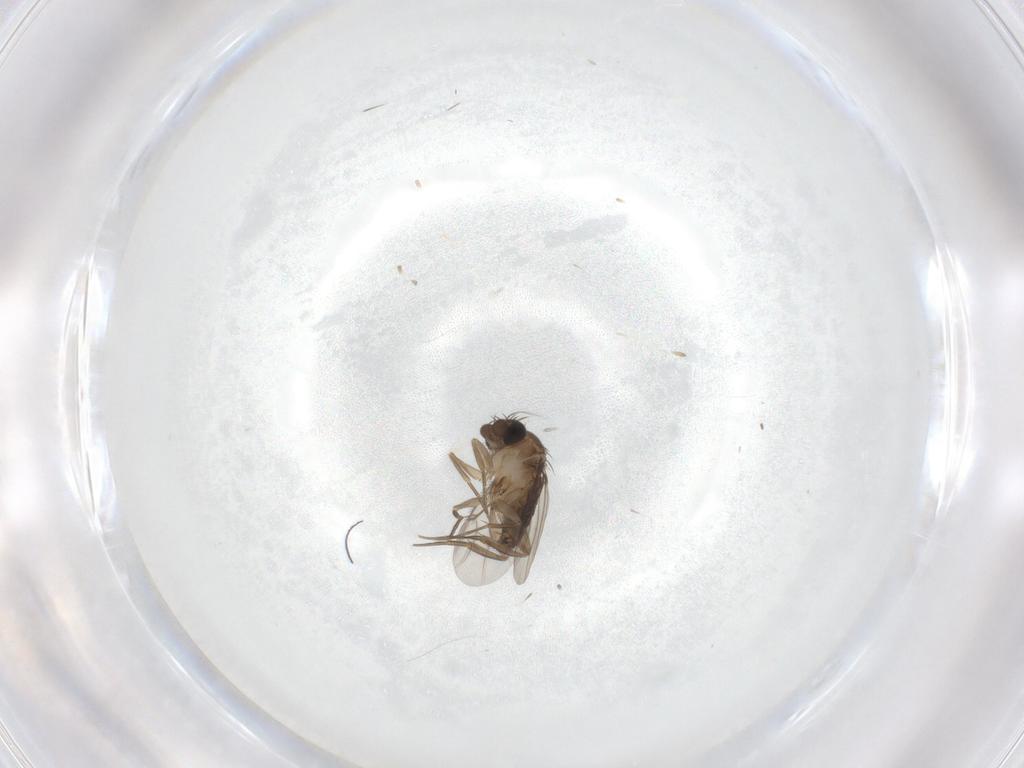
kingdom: Animalia
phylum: Arthropoda
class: Insecta
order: Diptera
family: Phoridae
